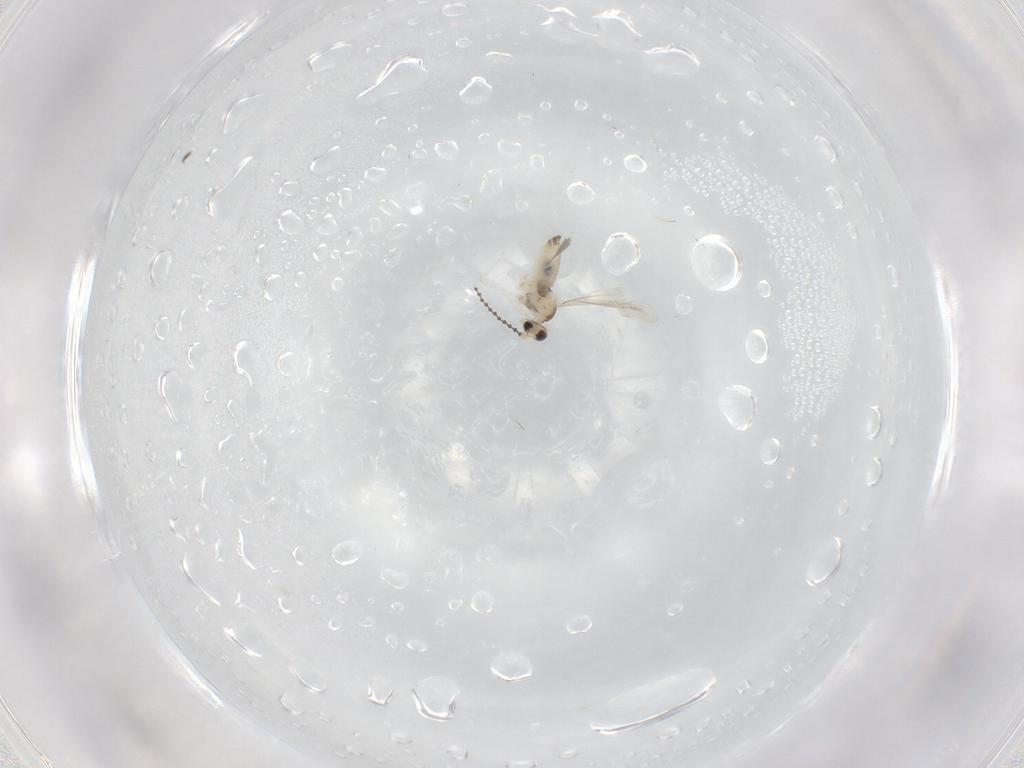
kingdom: Animalia
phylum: Arthropoda
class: Insecta
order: Diptera
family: Cecidomyiidae
